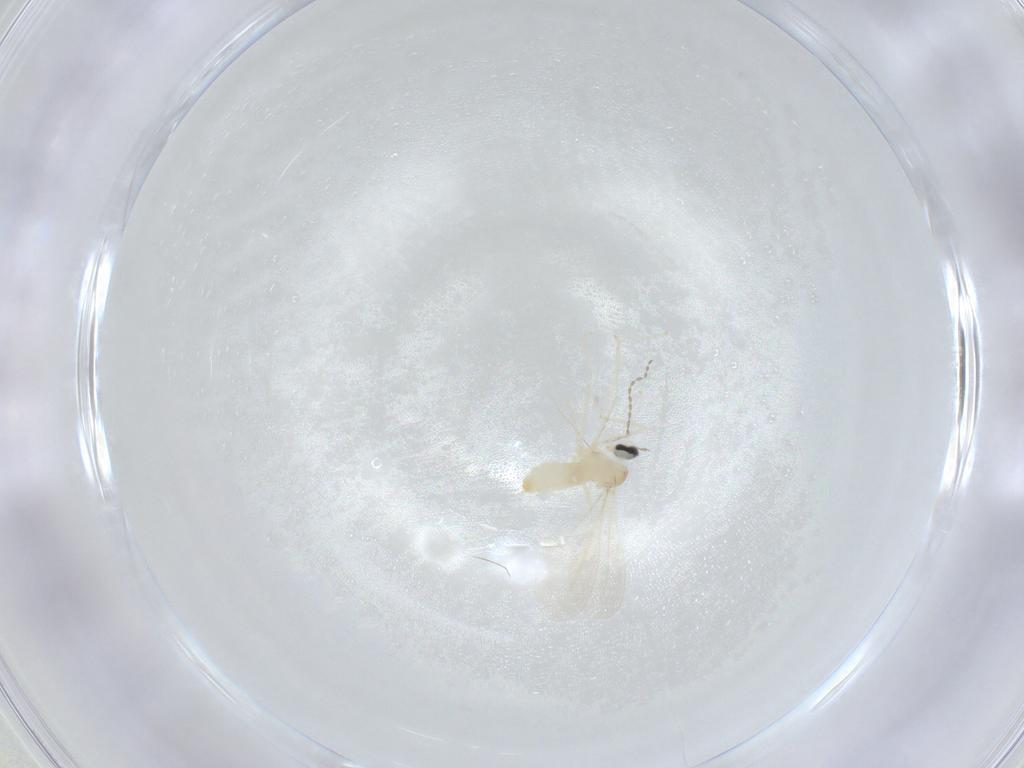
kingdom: Animalia
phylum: Arthropoda
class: Insecta
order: Diptera
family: Cecidomyiidae
